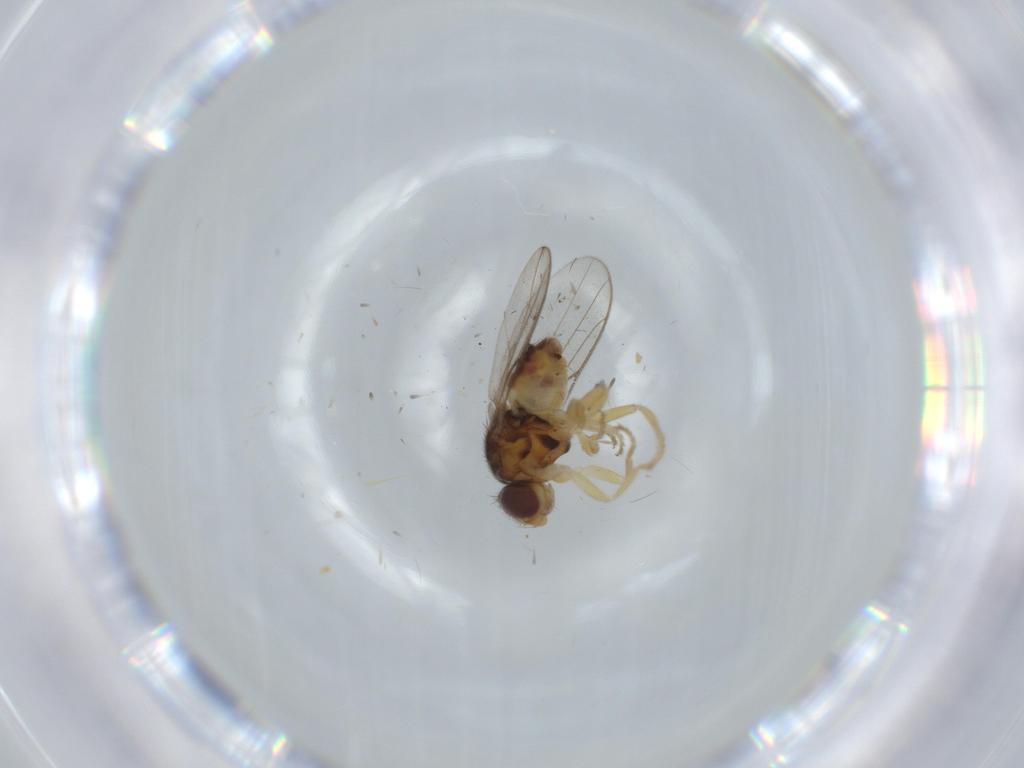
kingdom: Animalia
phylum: Arthropoda
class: Insecta
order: Diptera
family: Chloropidae
